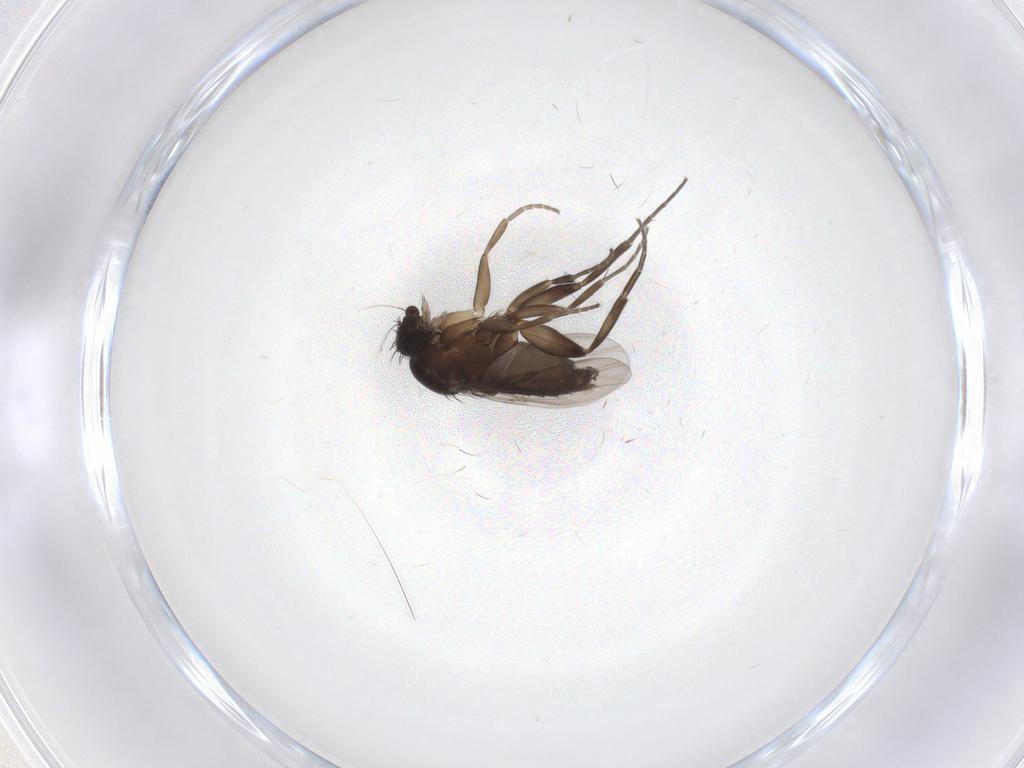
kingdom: Animalia
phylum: Arthropoda
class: Insecta
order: Diptera
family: Phoridae
